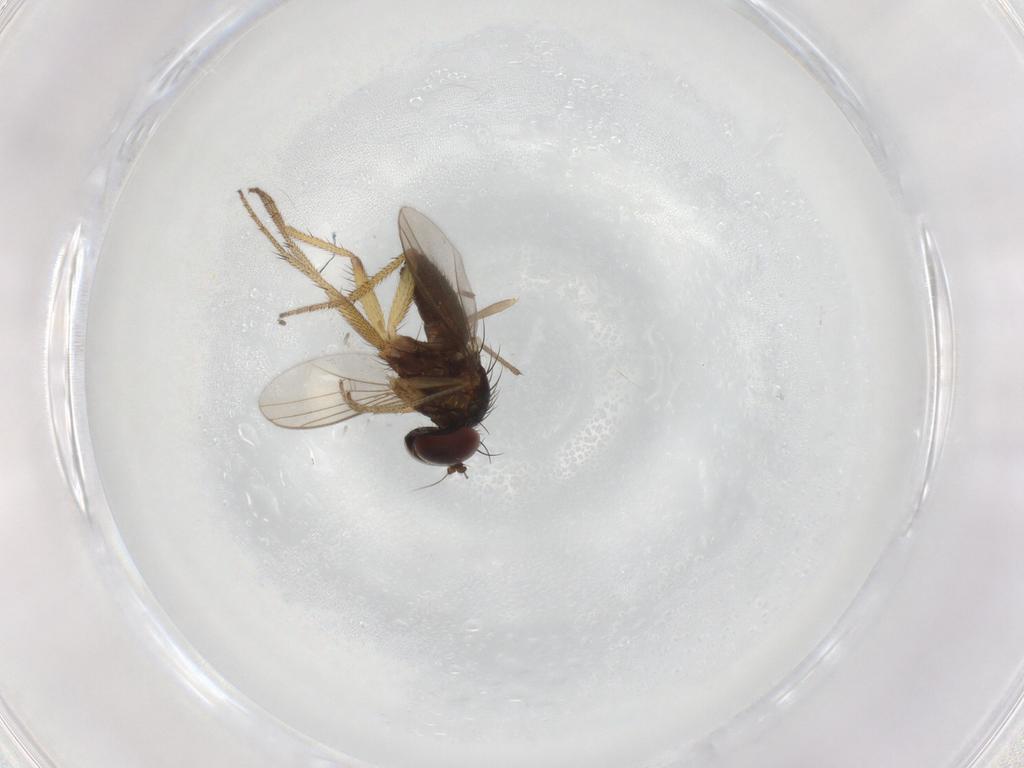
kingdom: Animalia
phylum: Arthropoda
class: Insecta
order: Diptera
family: Chironomidae
